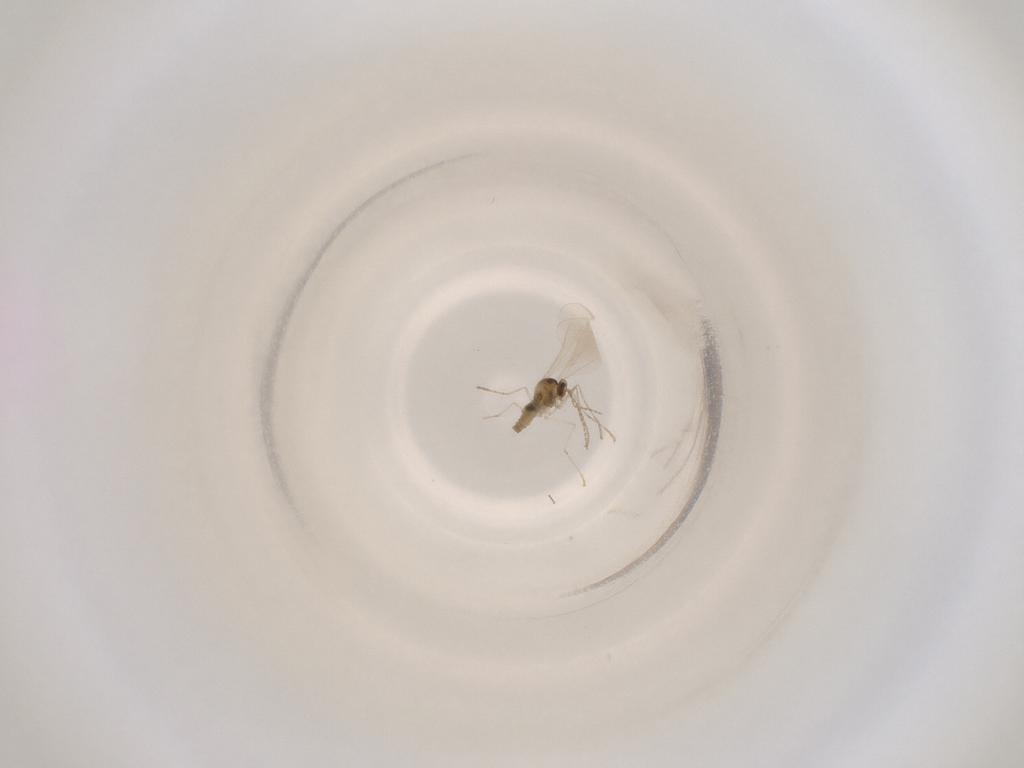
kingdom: Animalia
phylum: Arthropoda
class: Insecta
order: Diptera
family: Cecidomyiidae
